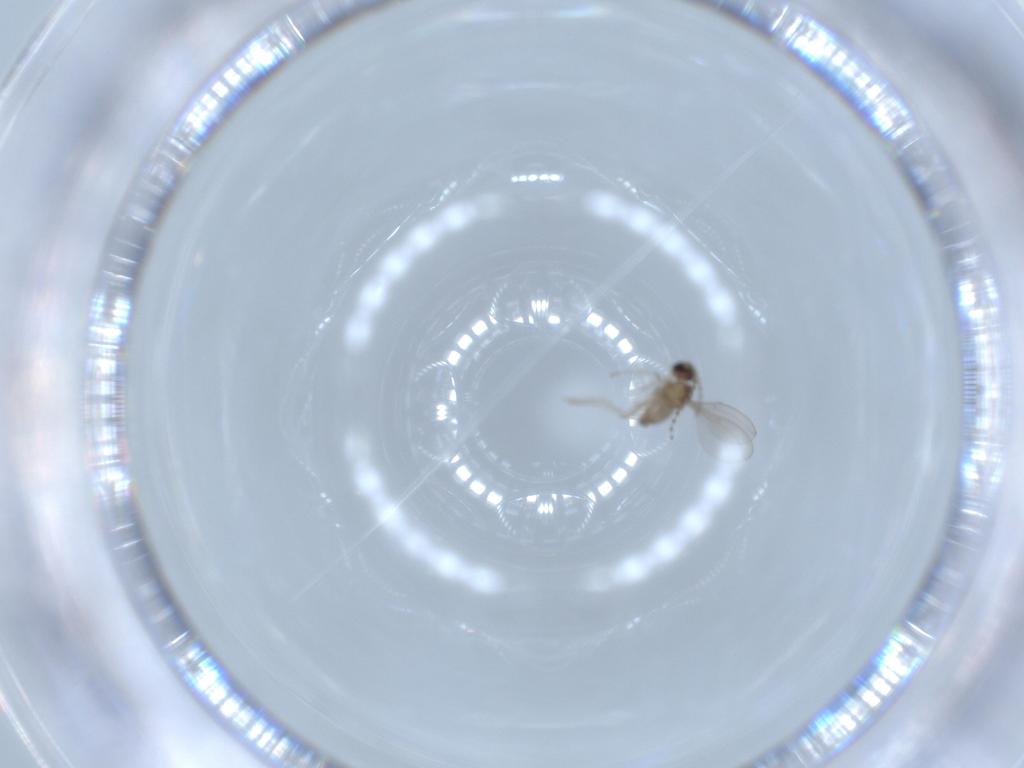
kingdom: Animalia
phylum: Arthropoda
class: Insecta
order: Diptera
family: Cecidomyiidae
